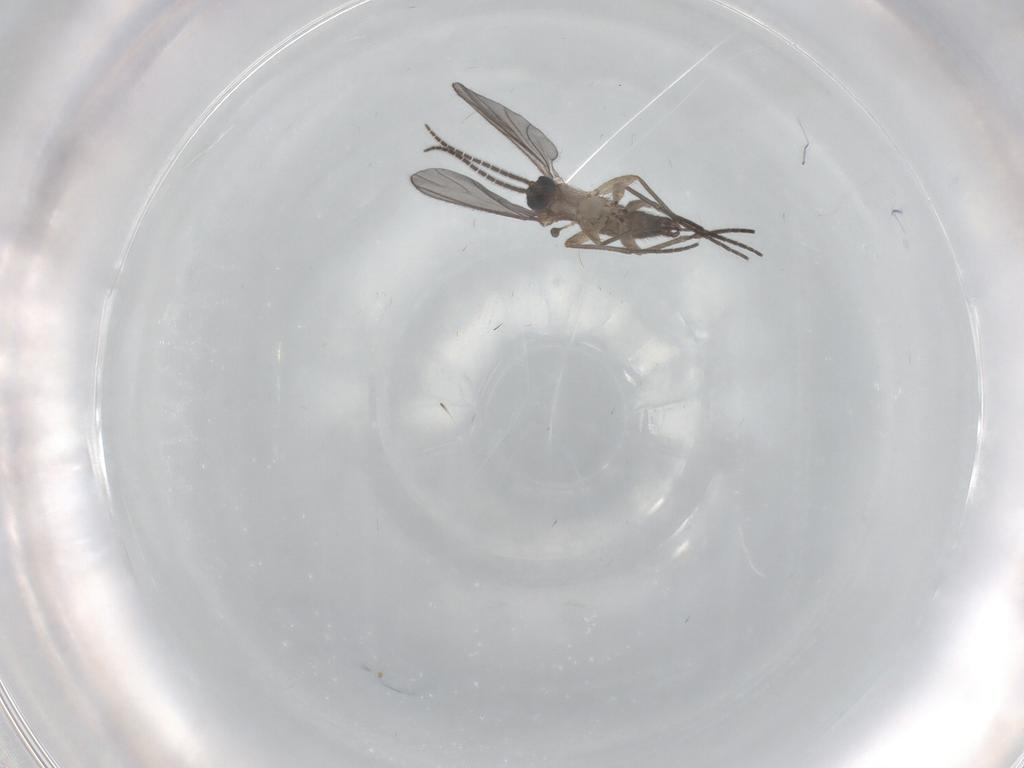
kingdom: Animalia
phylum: Arthropoda
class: Insecta
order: Diptera
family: Sciaridae
